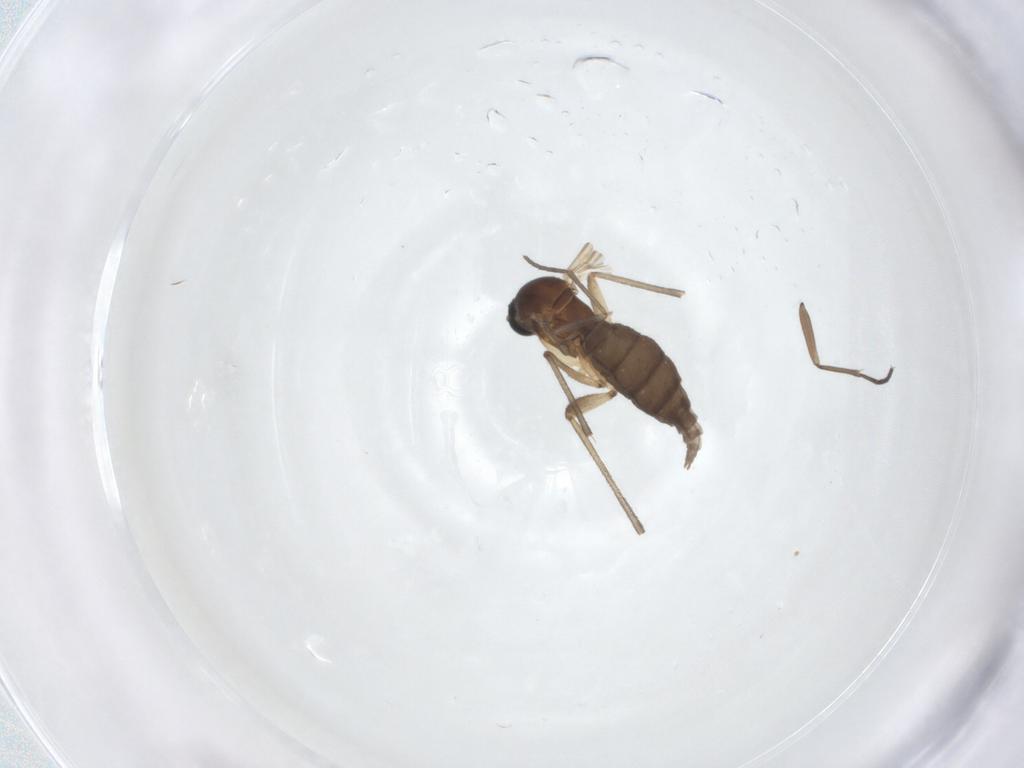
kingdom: Animalia
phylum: Arthropoda
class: Insecta
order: Diptera
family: Sciaridae
